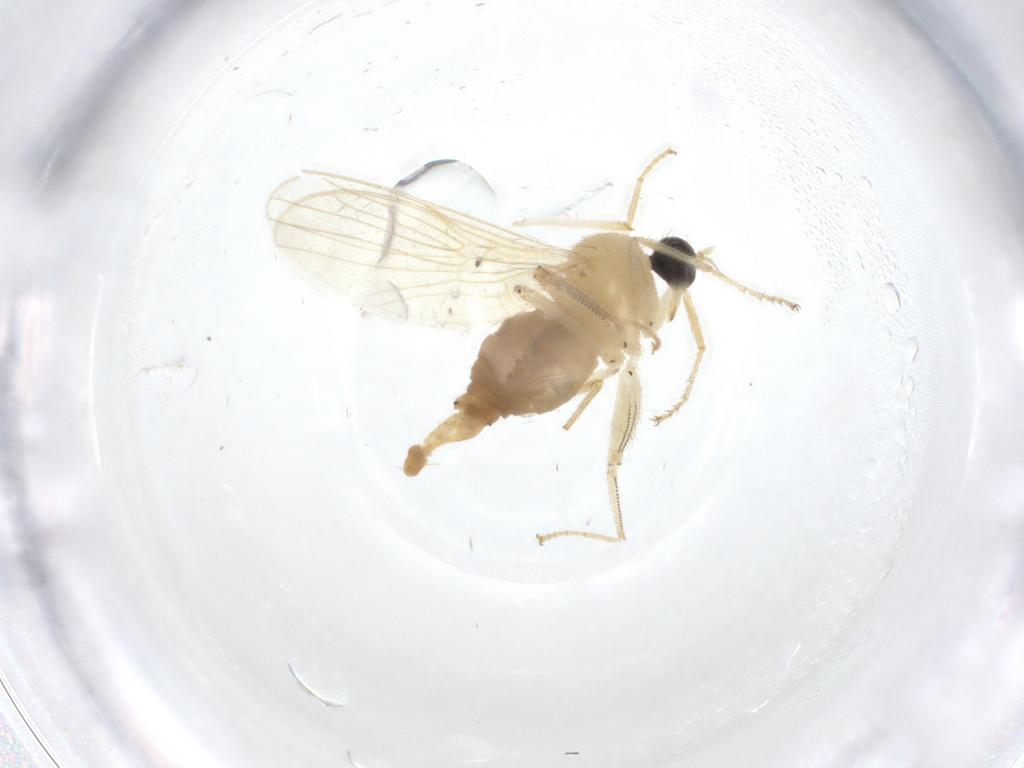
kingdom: Animalia
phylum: Arthropoda
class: Insecta
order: Diptera
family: Hybotidae
